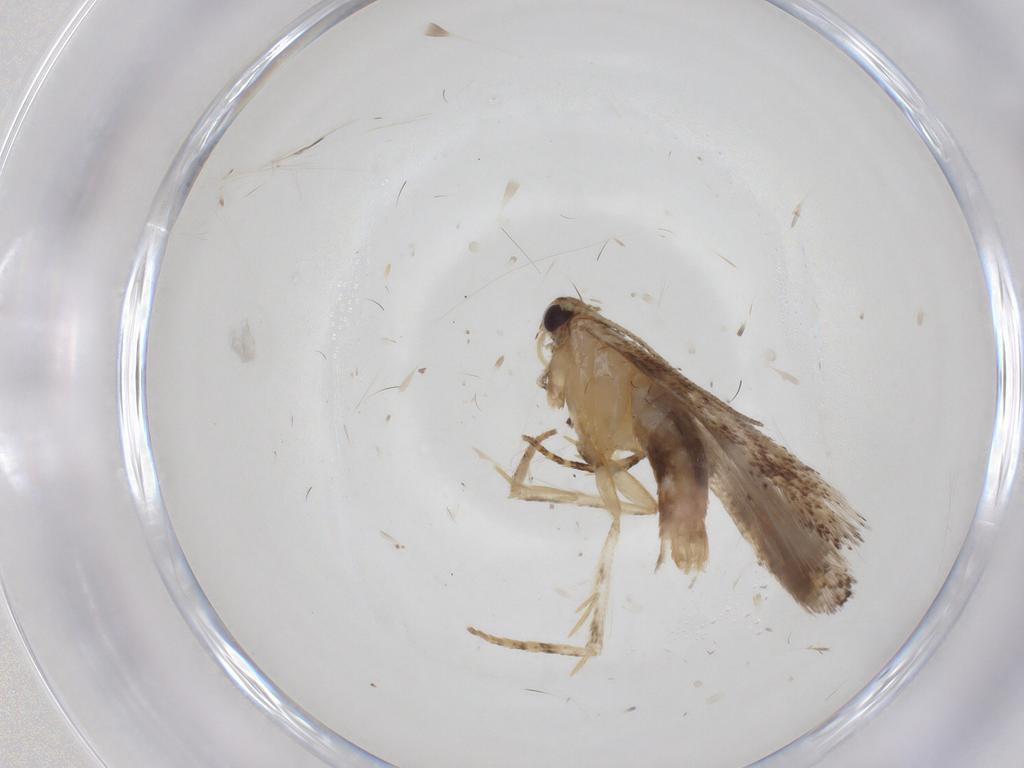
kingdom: Animalia
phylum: Arthropoda
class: Insecta
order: Lepidoptera
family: Gelechiidae
